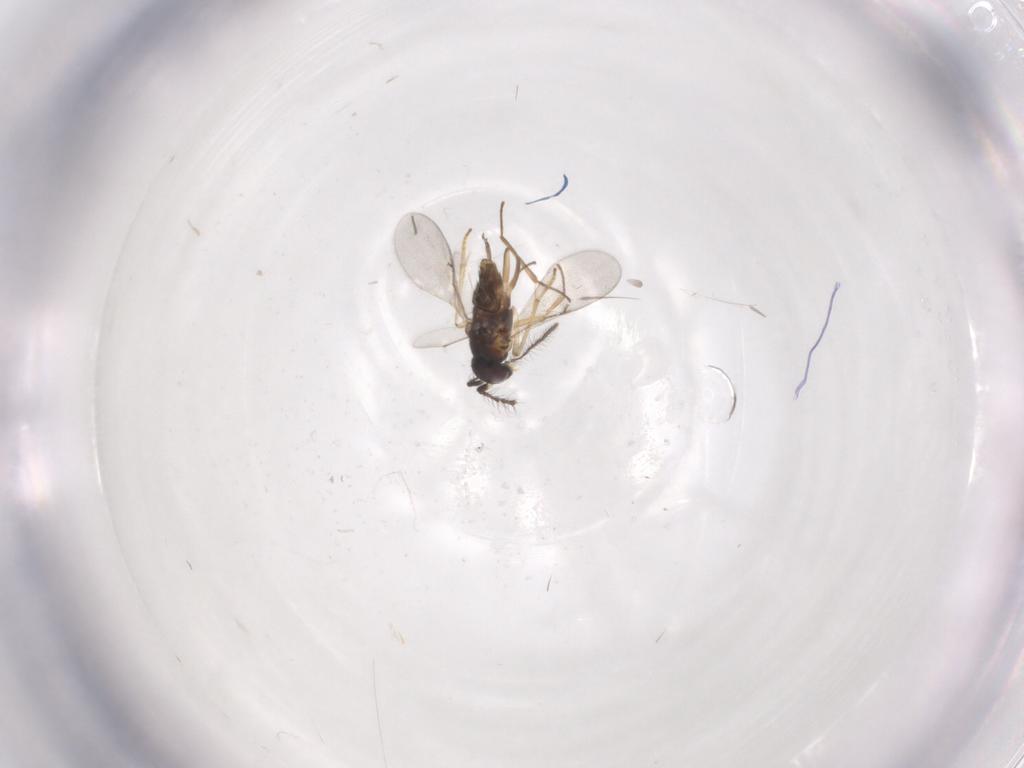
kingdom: Animalia
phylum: Arthropoda
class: Insecta
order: Hymenoptera
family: Encyrtidae
